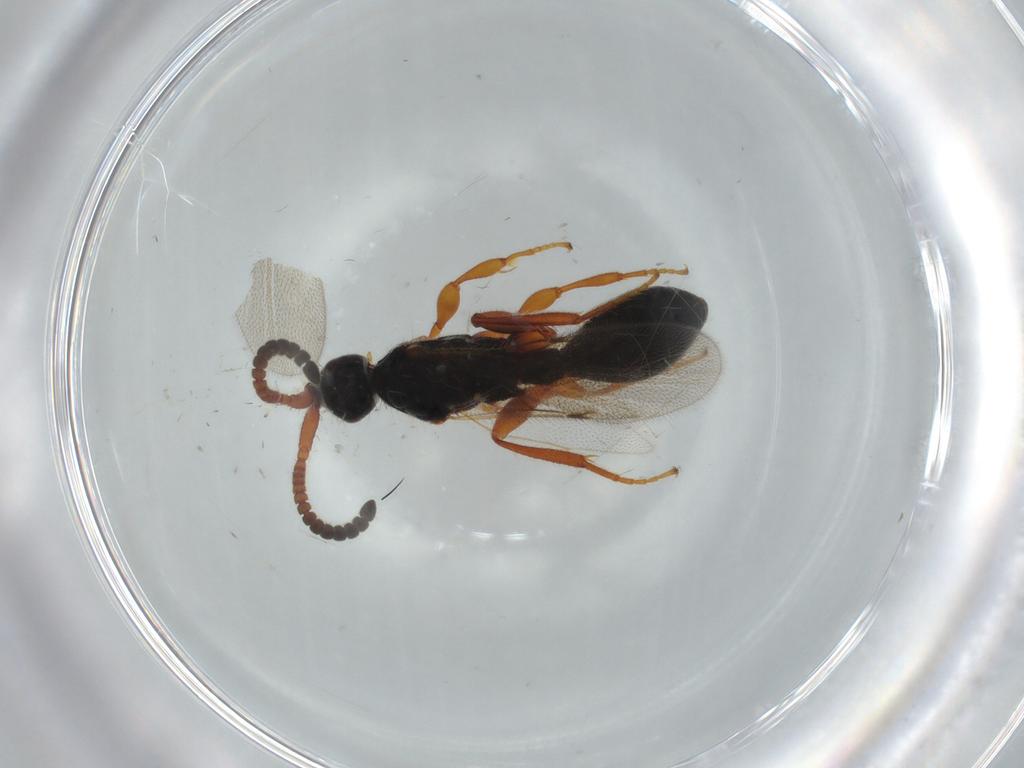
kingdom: Animalia
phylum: Arthropoda
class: Insecta
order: Hymenoptera
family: Diapriidae
